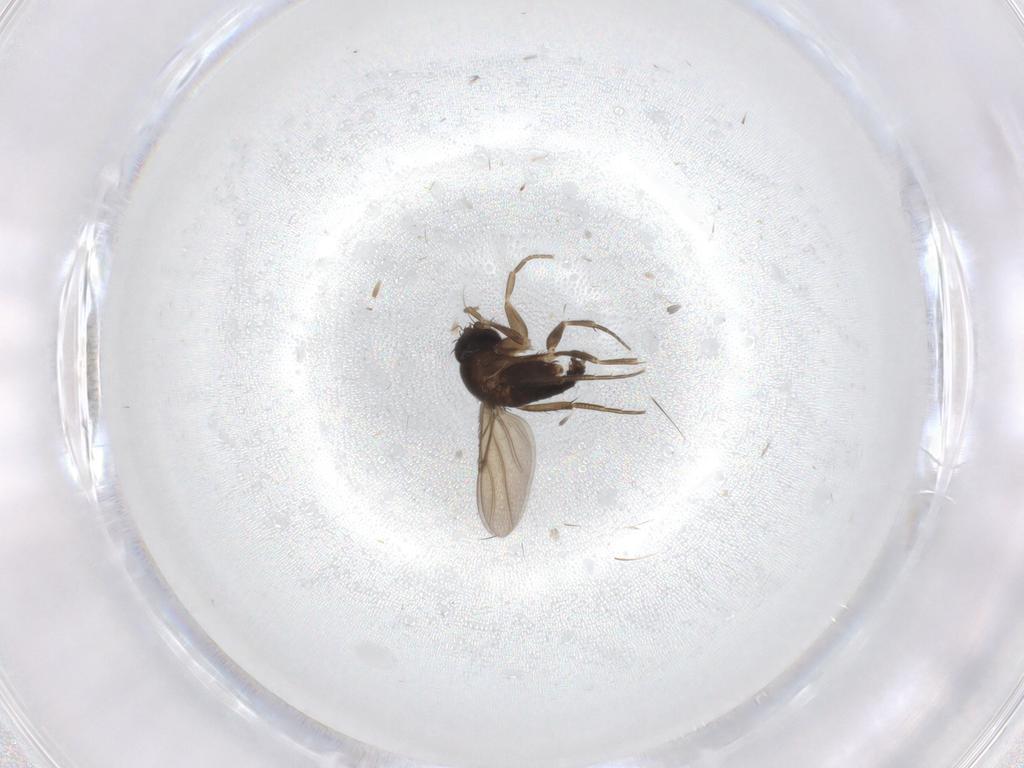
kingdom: Animalia
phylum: Arthropoda
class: Insecta
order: Diptera
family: Phoridae
